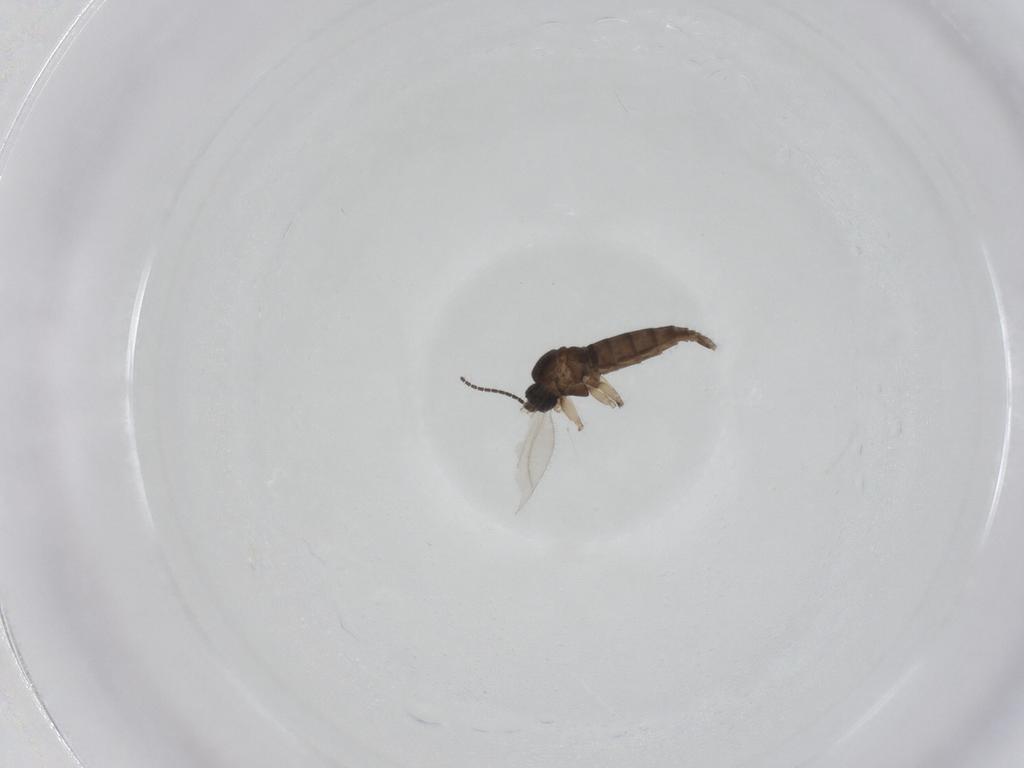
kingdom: Animalia
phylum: Arthropoda
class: Insecta
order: Diptera
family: Sciaridae
